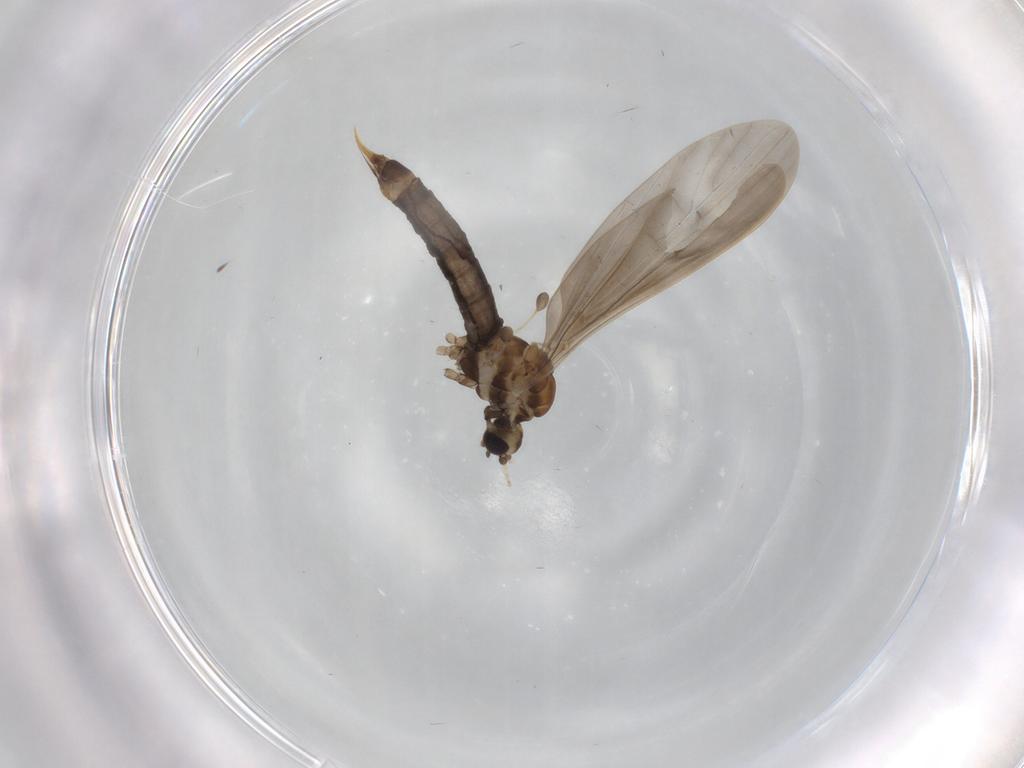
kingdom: Animalia
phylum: Arthropoda
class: Insecta
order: Diptera
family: Limoniidae
